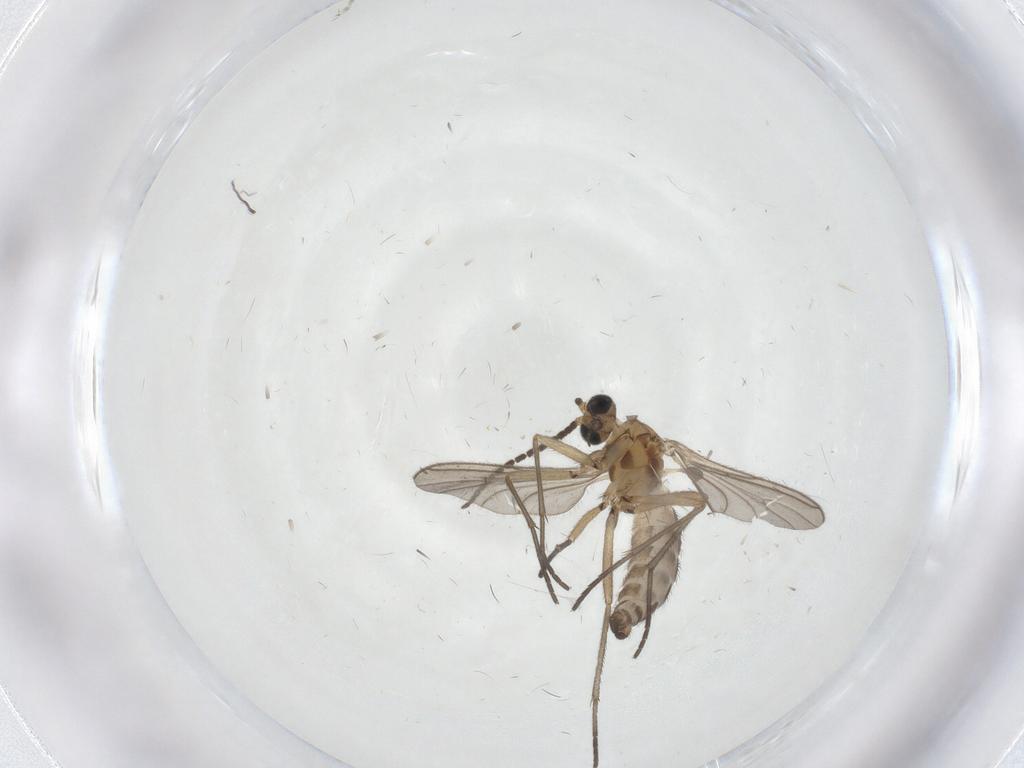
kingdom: Animalia
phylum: Arthropoda
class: Insecta
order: Diptera
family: Sciaridae
